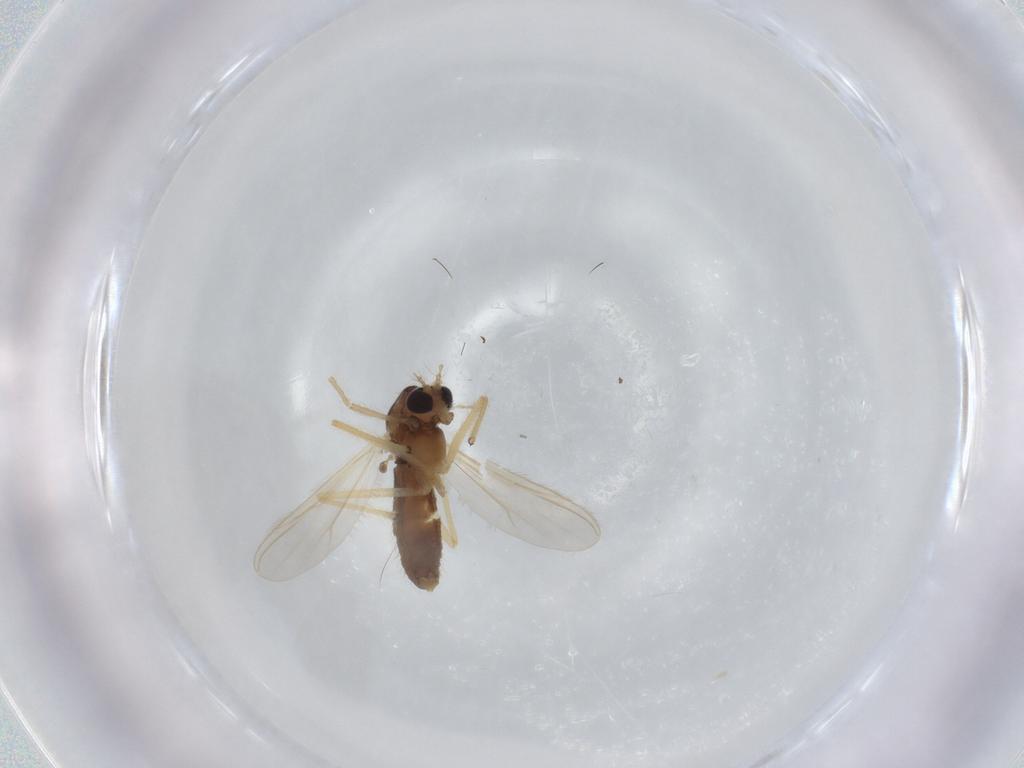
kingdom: Animalia
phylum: Arthropoda
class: Insecta
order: Diptera
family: Chironomidae
